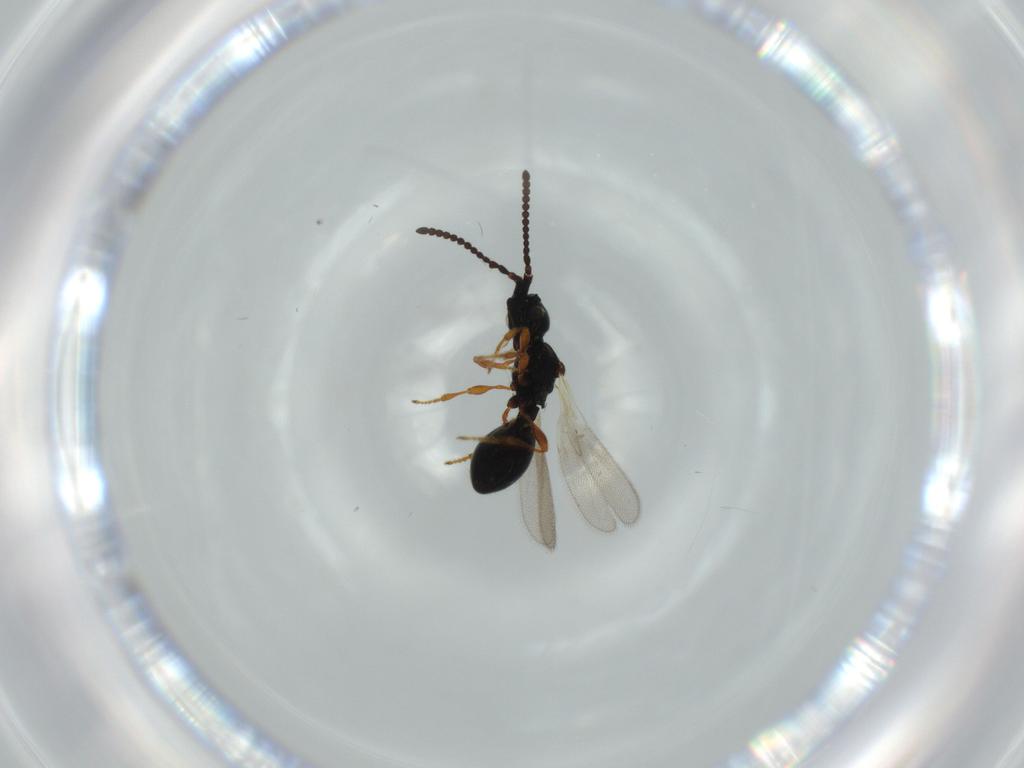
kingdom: Animalia
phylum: Arthropoda
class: Insecta
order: Hymenoptera
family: Diapriidae
